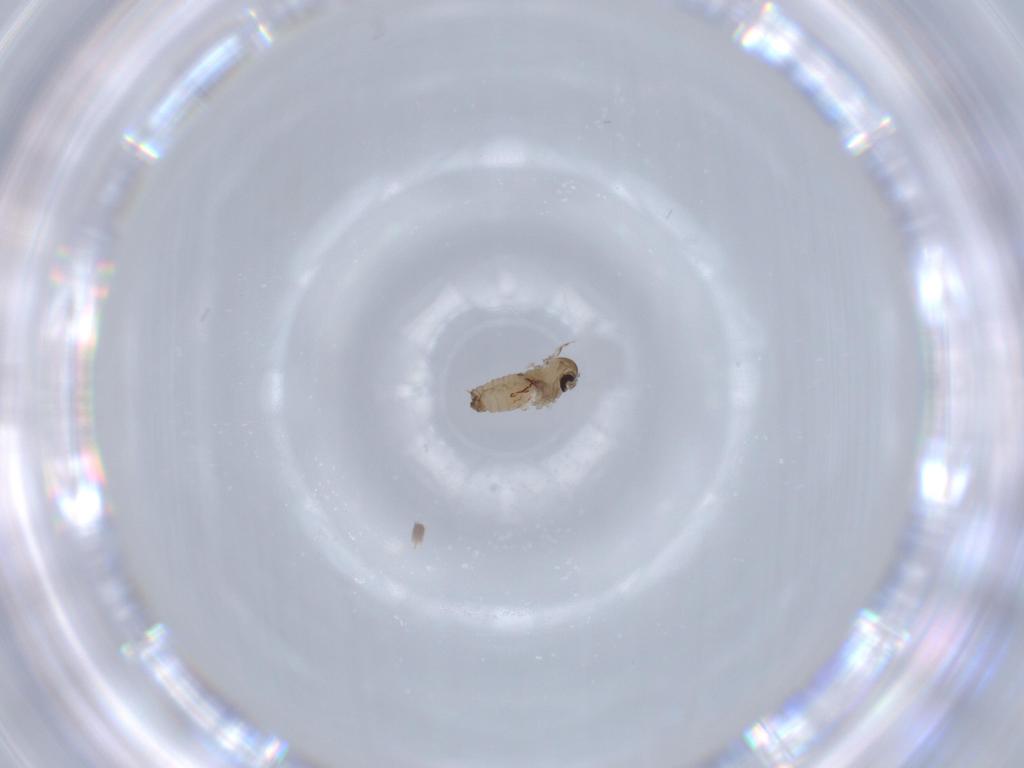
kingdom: Animalia
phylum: Arthropoda
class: Insecta
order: Diptera
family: Psychodidae
